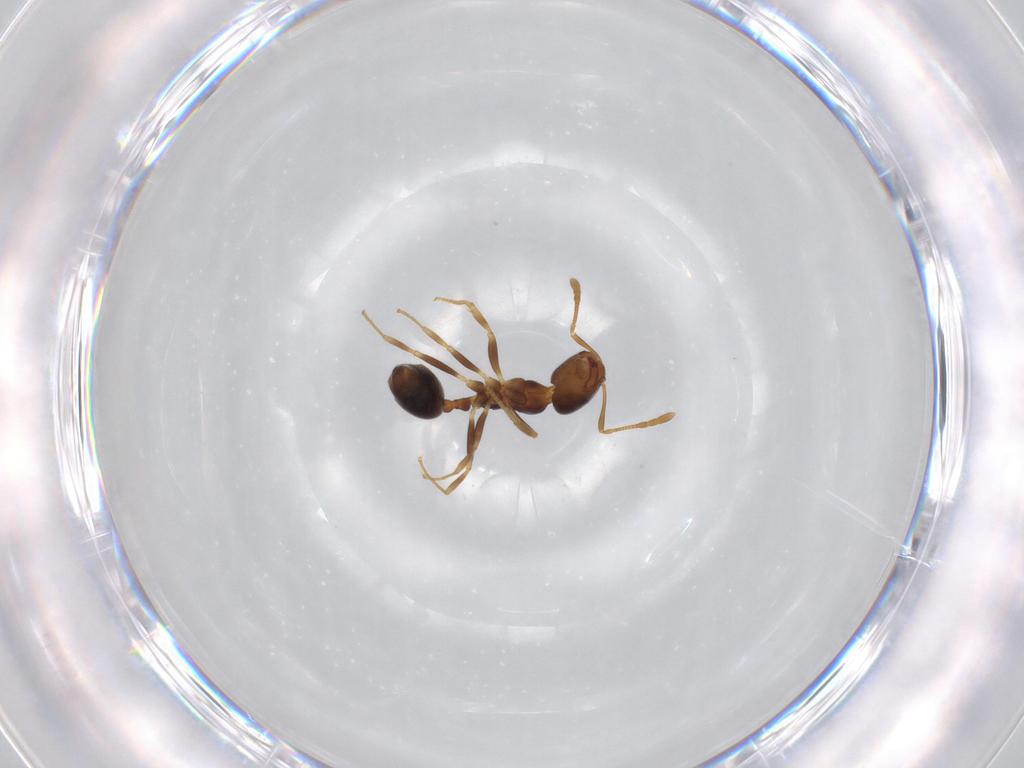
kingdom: Animalia
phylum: Arthropoda
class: Insecta
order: Hymenoptera
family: Formicidae
